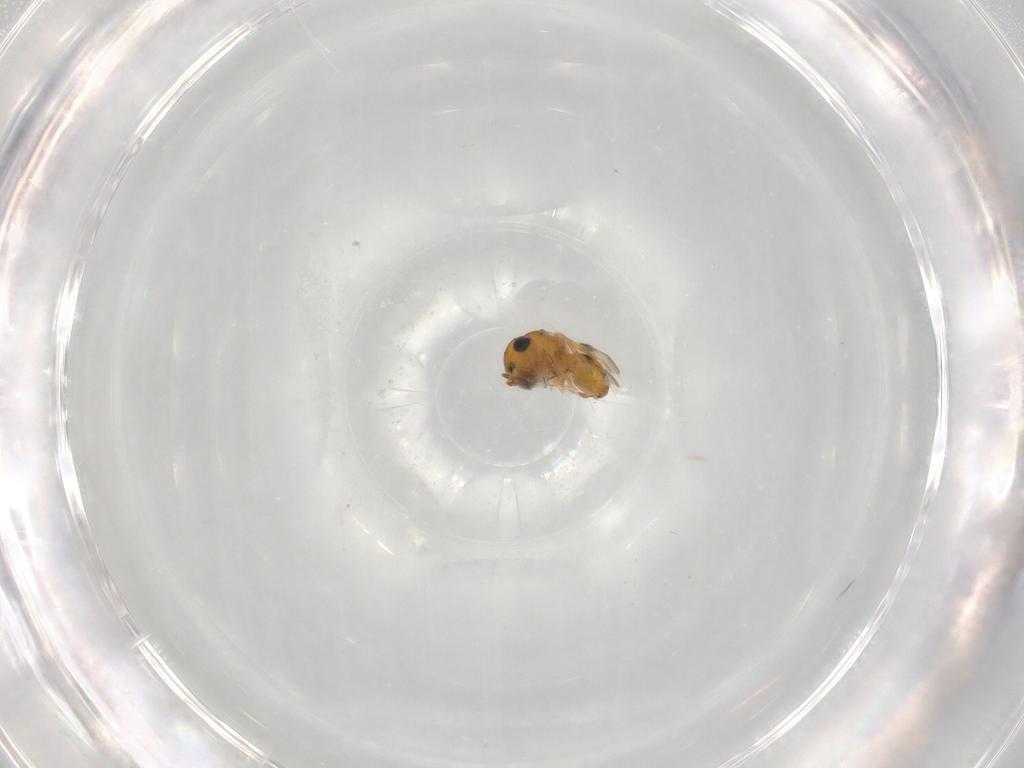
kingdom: Animalia
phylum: Arthropoda
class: Insecta
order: Hymenoptera
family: Scelionidae
